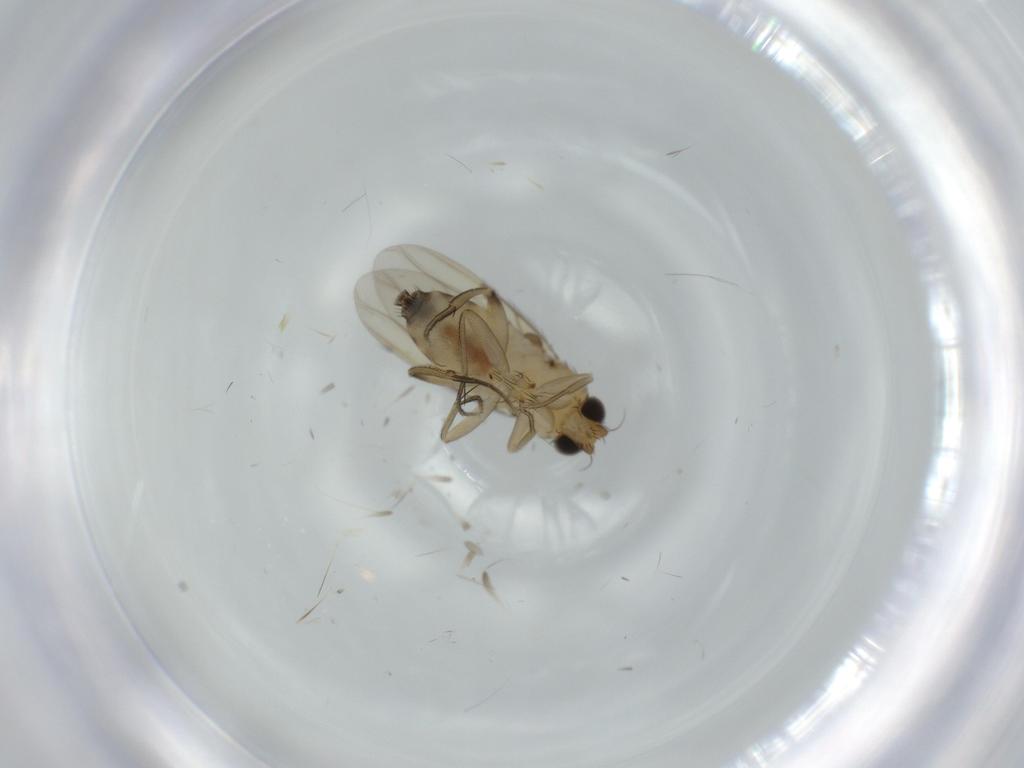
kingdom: Animalia
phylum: Arthropoda
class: Insecta
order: Diptera
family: Phoridae
